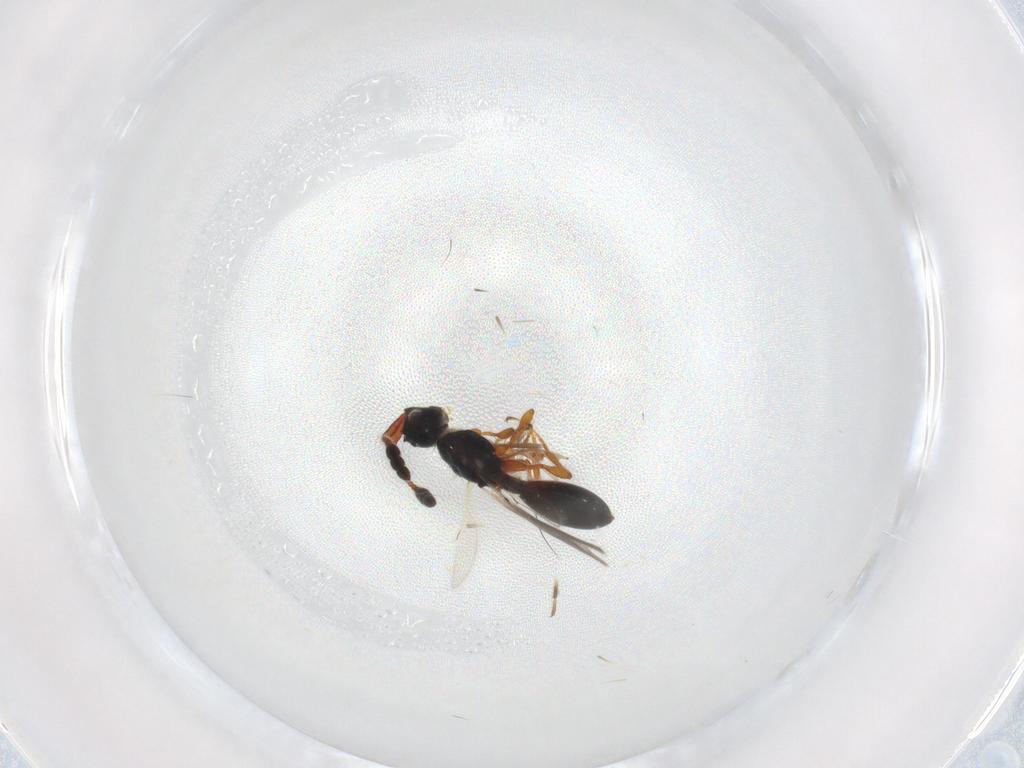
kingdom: Animalia
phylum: Arthropoda
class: Insecta
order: Hymenoptera
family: Diapriidae
